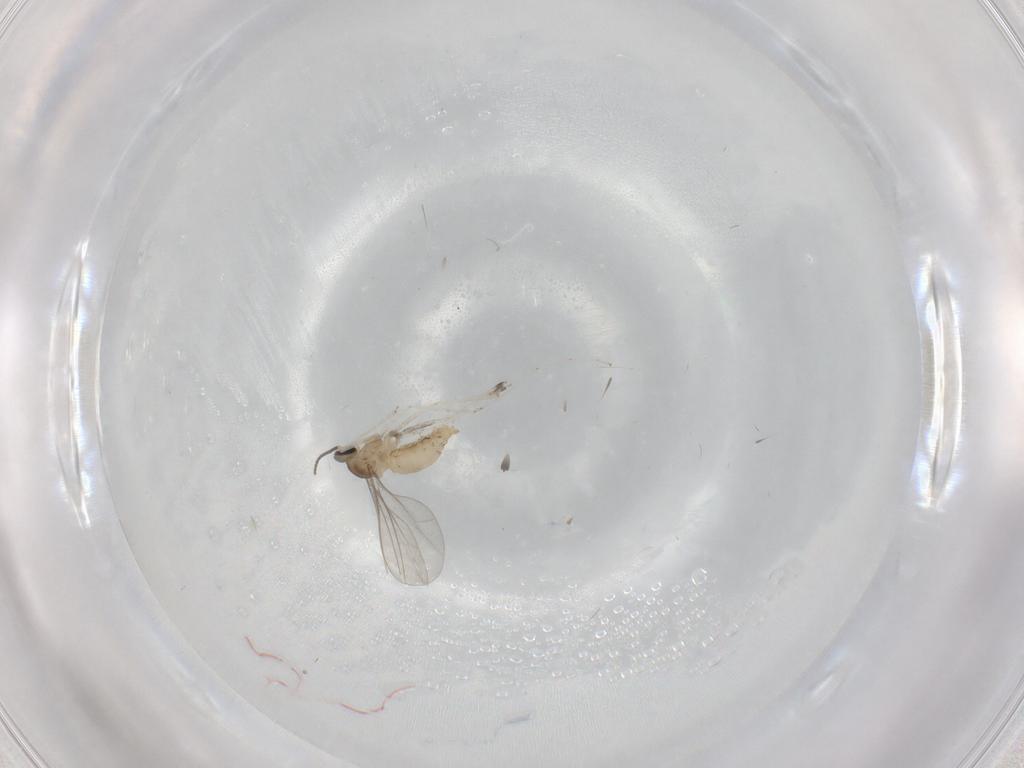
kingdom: Animalia
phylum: Arthropoda
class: Insecta
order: Diptera
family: Cecidomyiidae
